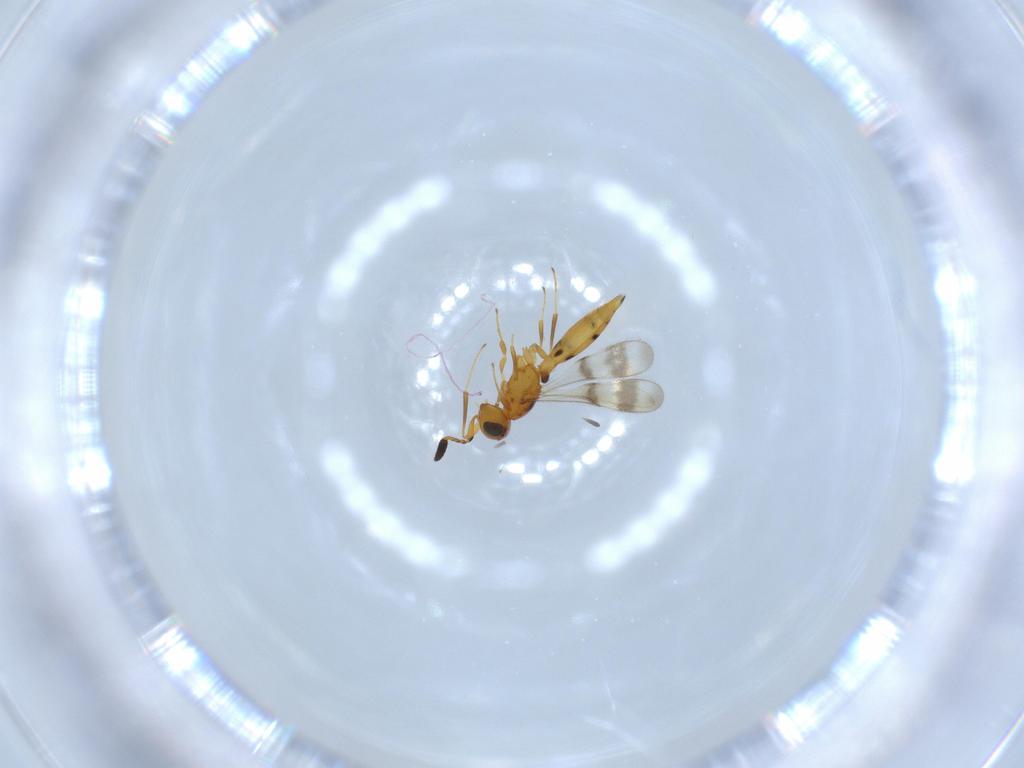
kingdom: Animalia
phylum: Arthropoda
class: Insecta
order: Hymenoptera
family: Scelionidae
